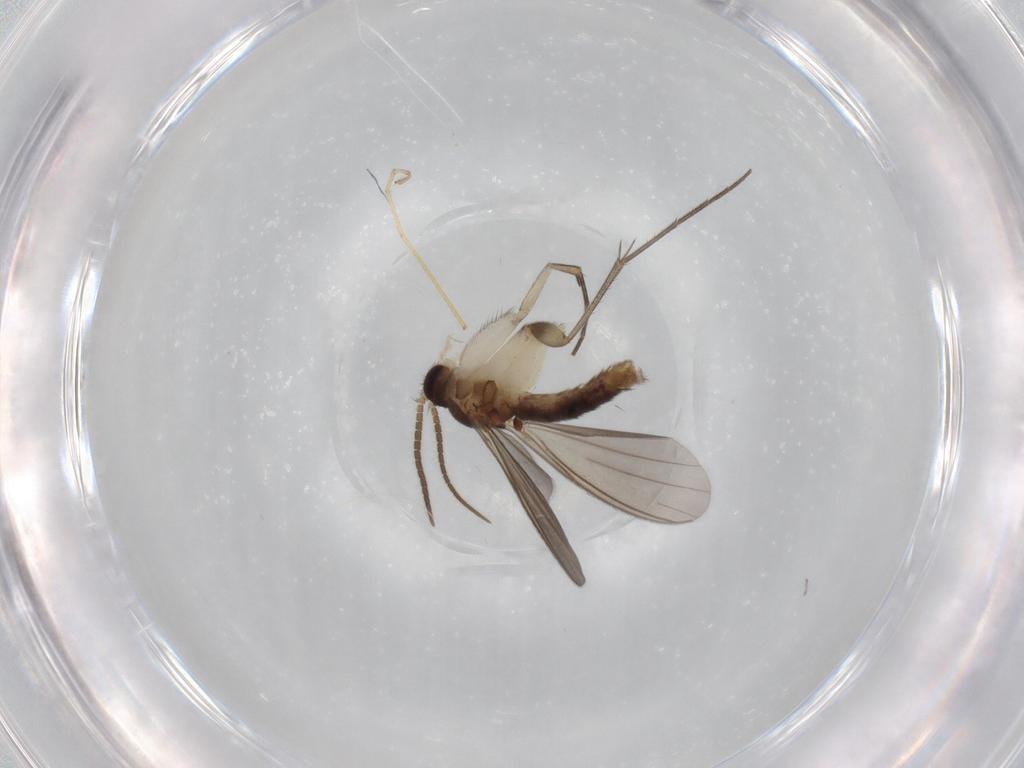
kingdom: Animalia
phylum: Arthropoda
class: Insecta
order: Diptera
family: Mycetophilidae
